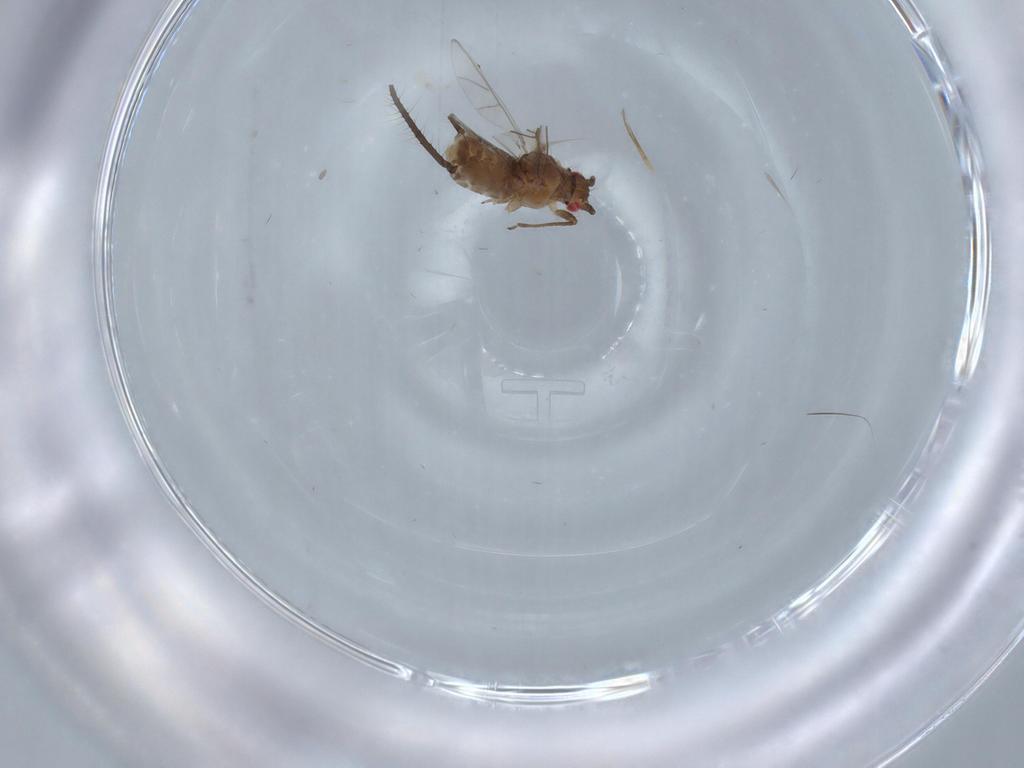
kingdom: Animalia
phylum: Arthropoda
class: Insecta
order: Hemiptera
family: Aphididae
